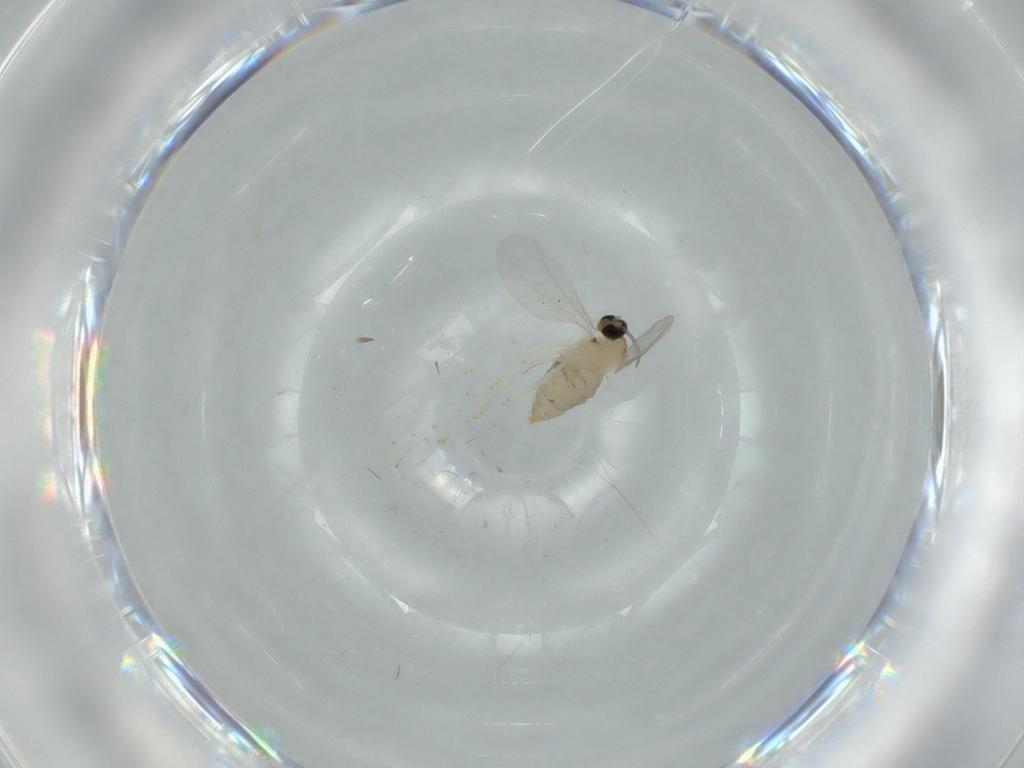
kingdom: Animalia
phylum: Arthropoda
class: Insecta
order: Diptera
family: Cecidomyiidae
